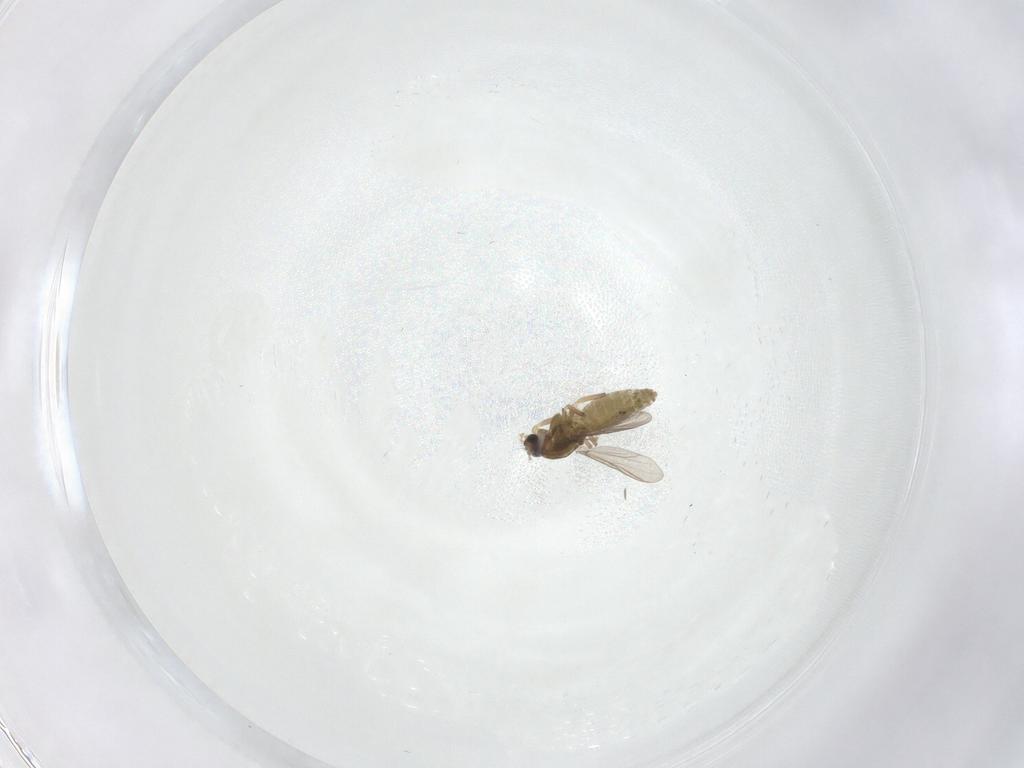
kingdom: Animalia
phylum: Arthropoda
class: Insecta
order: Diptera
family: Chironomidae
